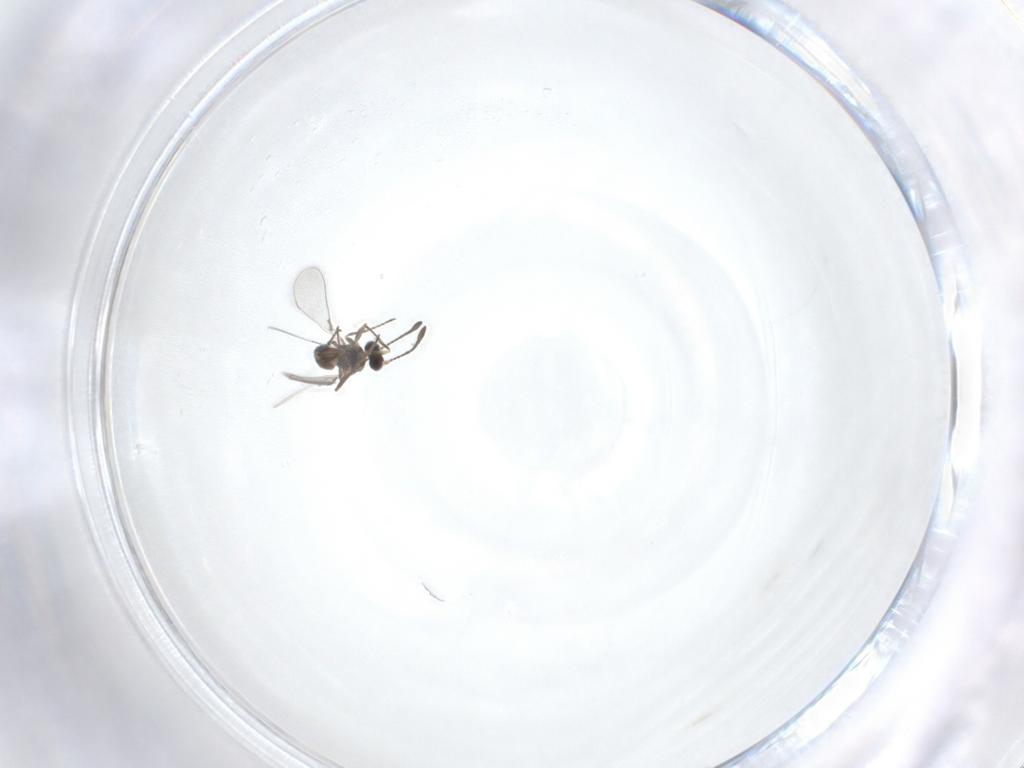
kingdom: Animalia
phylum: Arthropoda
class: Insecta
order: Hymenoptera
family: Mymaridae
